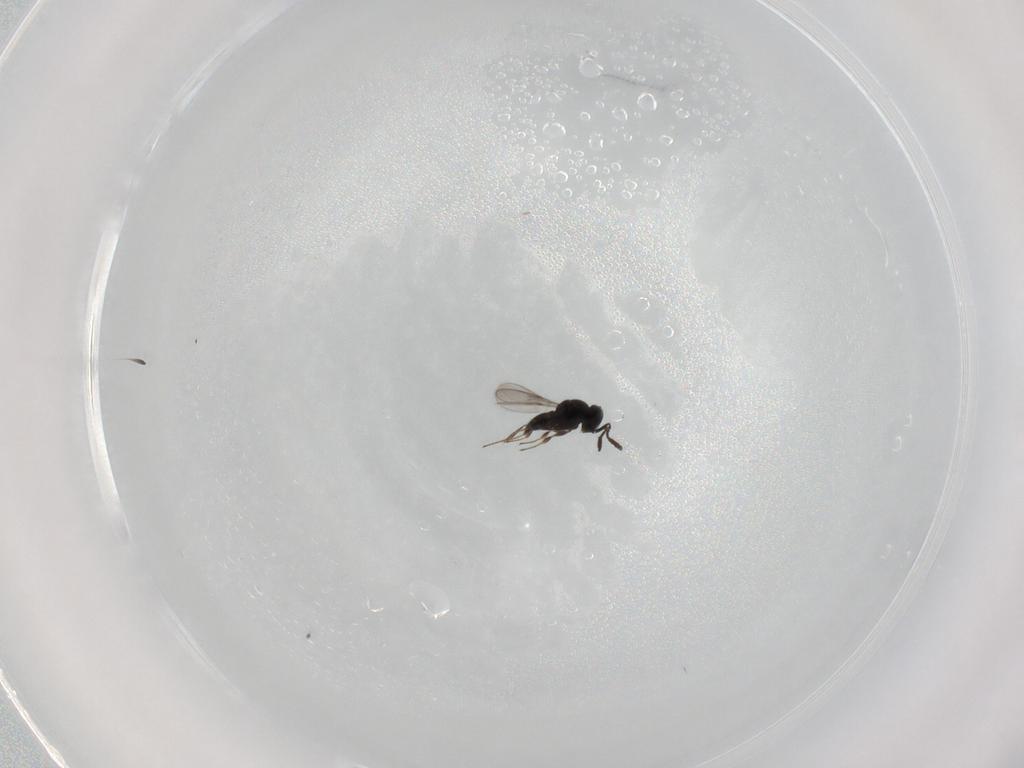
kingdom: Animalia
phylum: Arthropoda
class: Insecta
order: Hymenoptera
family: Scelionidae
